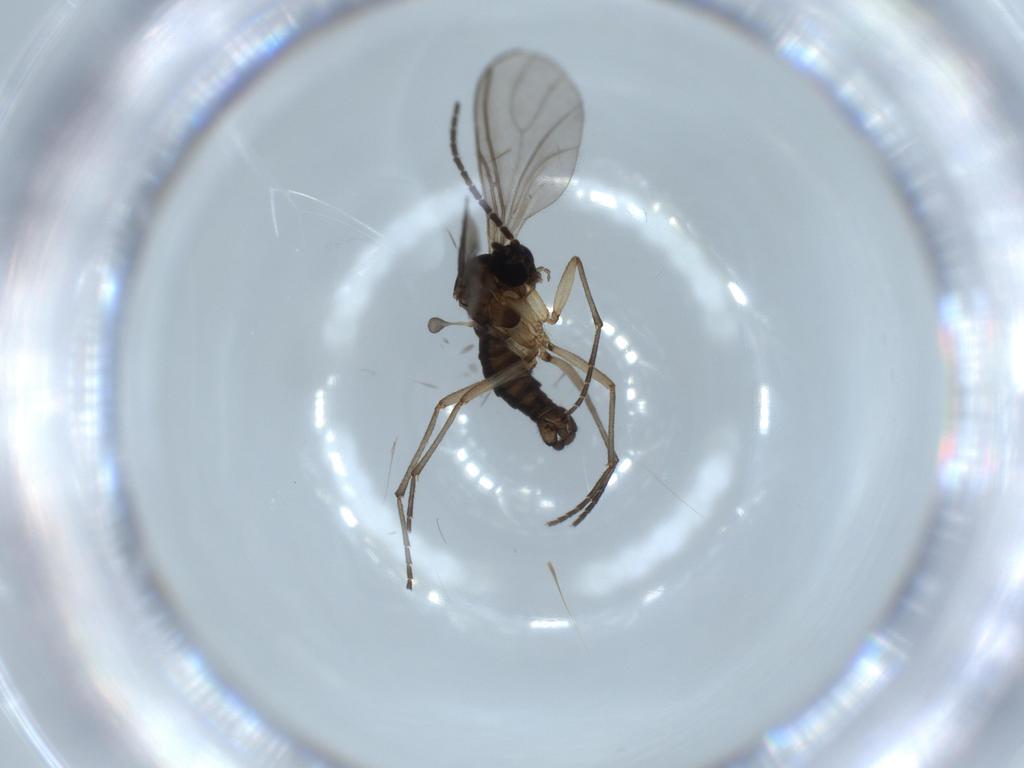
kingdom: Animalia
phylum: Arthropoda
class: Insecta
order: Diptera
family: Sciaridae
